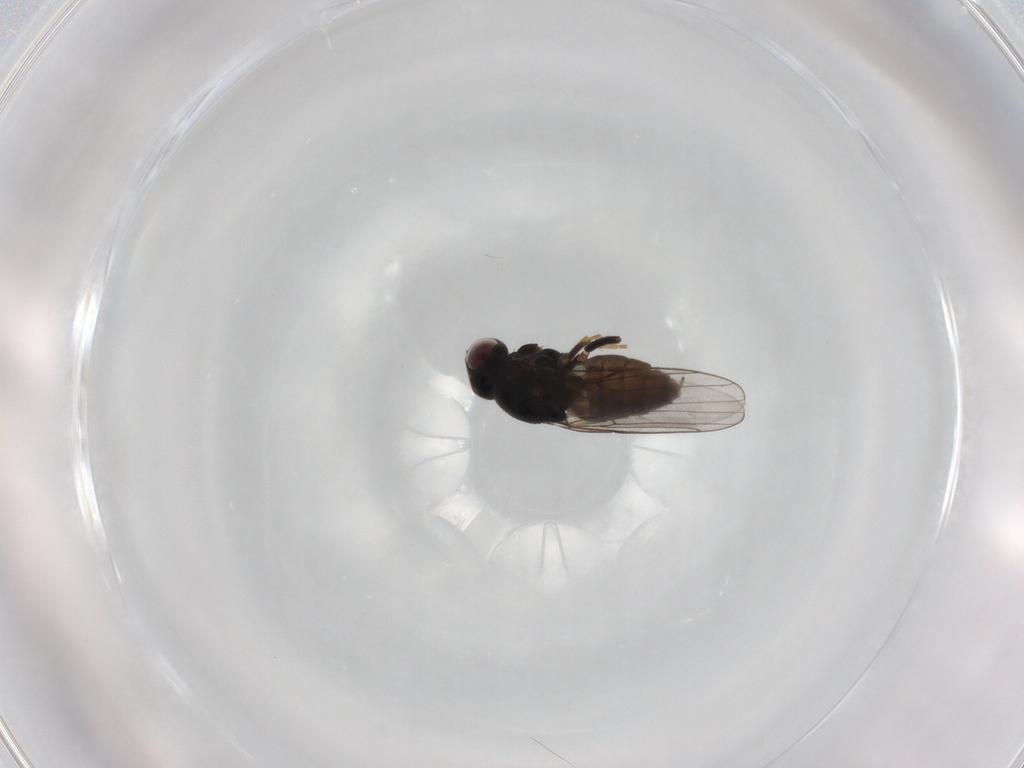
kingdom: Animalia
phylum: Arthropoda
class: Insecta
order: Diptera
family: Chloropidae
